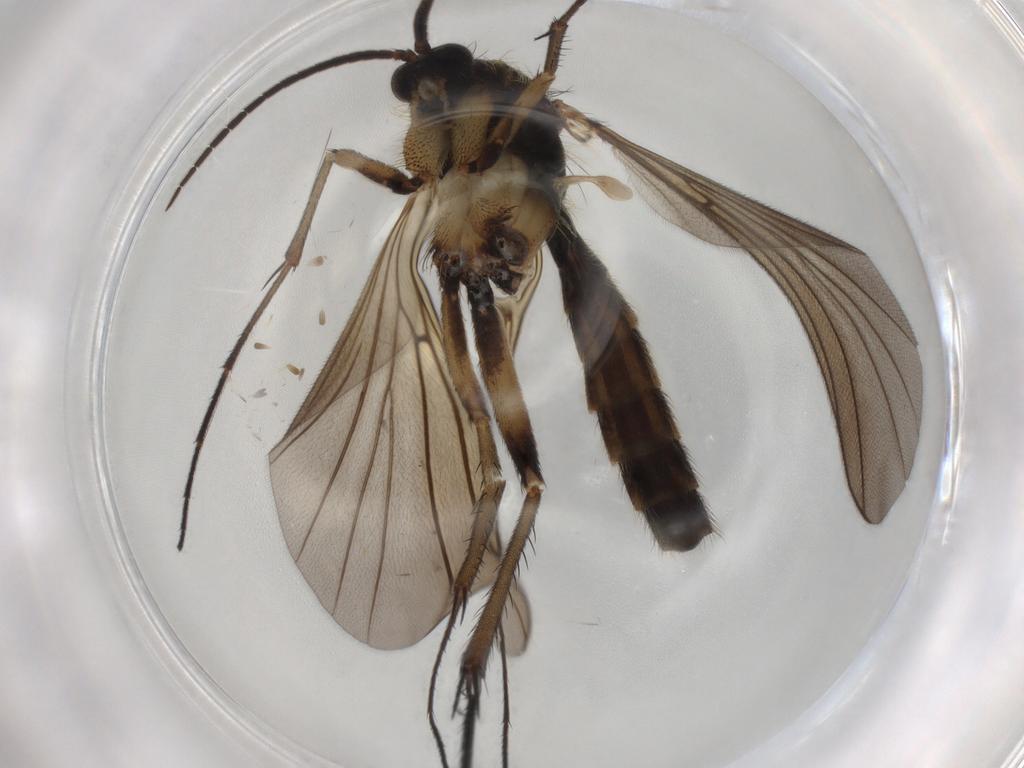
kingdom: Animalia
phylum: Arthropoda
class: Insecta
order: Diptera
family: Mycetophilidae
